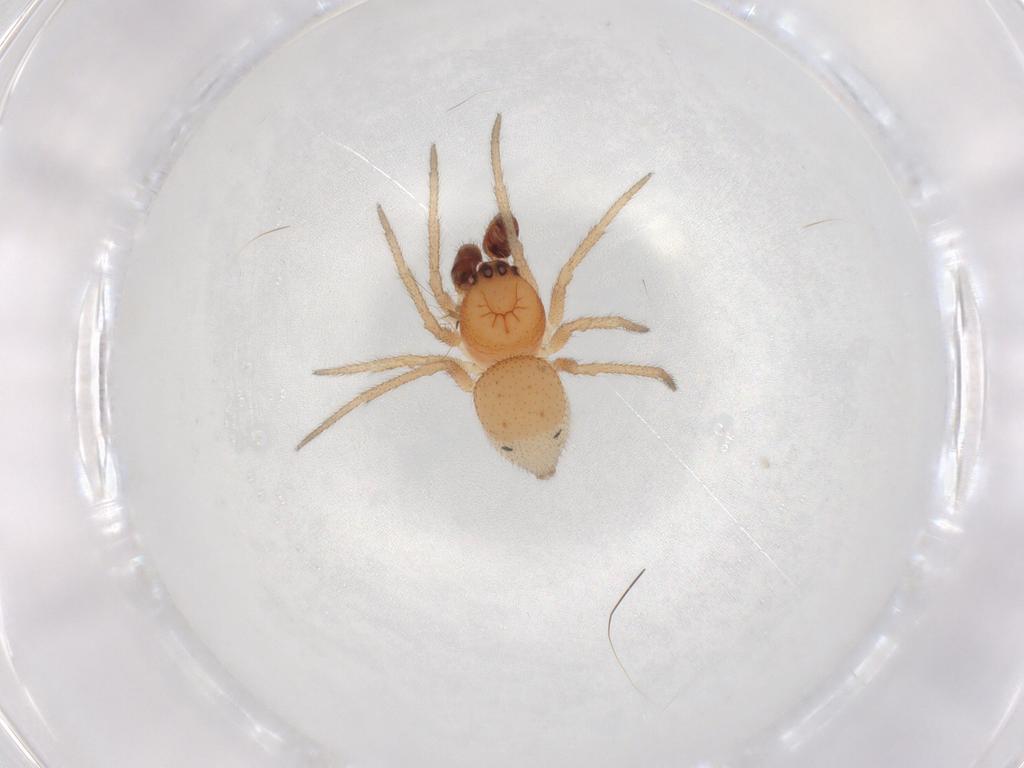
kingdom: Animalia
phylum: Arthropoda
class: Arachnida
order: Araneae
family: Theridiidae
